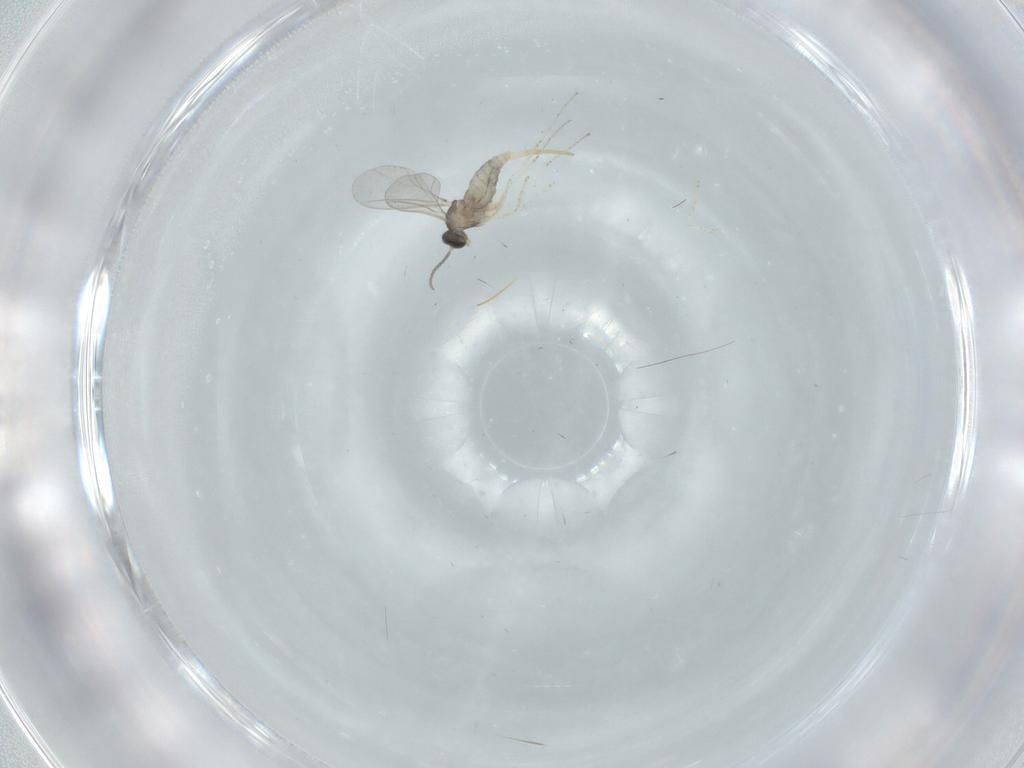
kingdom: Animalia
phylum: Arthropoda
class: Insecta
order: Diptera
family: Cecidomyiidae
